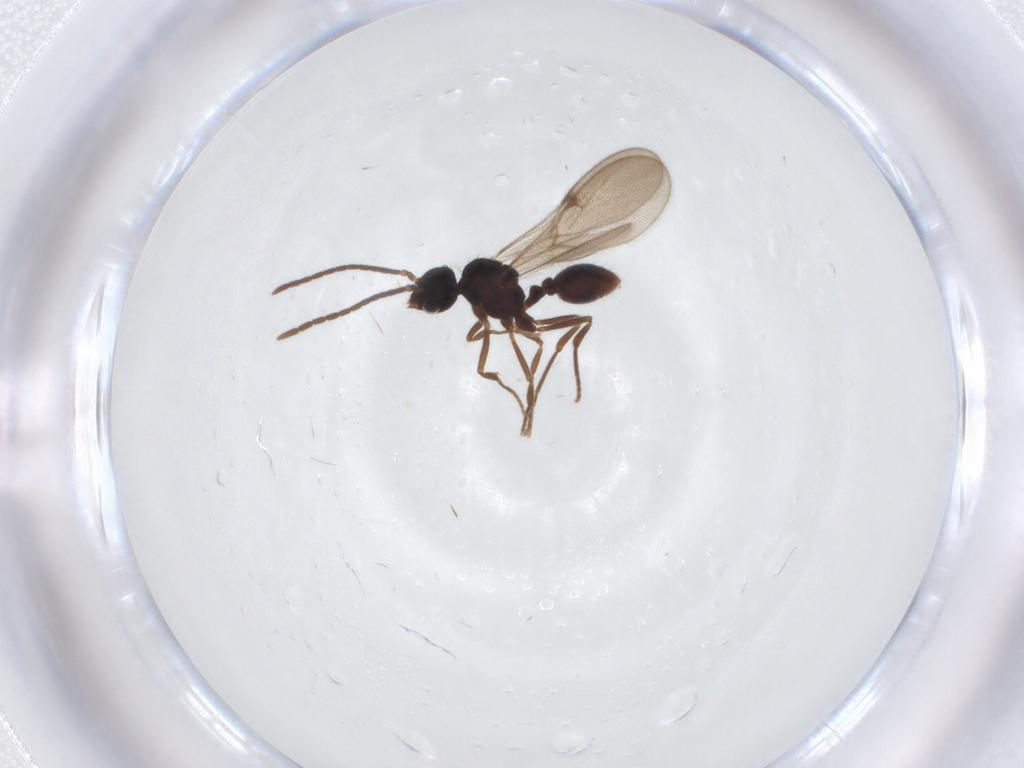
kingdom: Animalia
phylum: Arthropoda
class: Insecta
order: Hymenoptera
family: Formicidae
